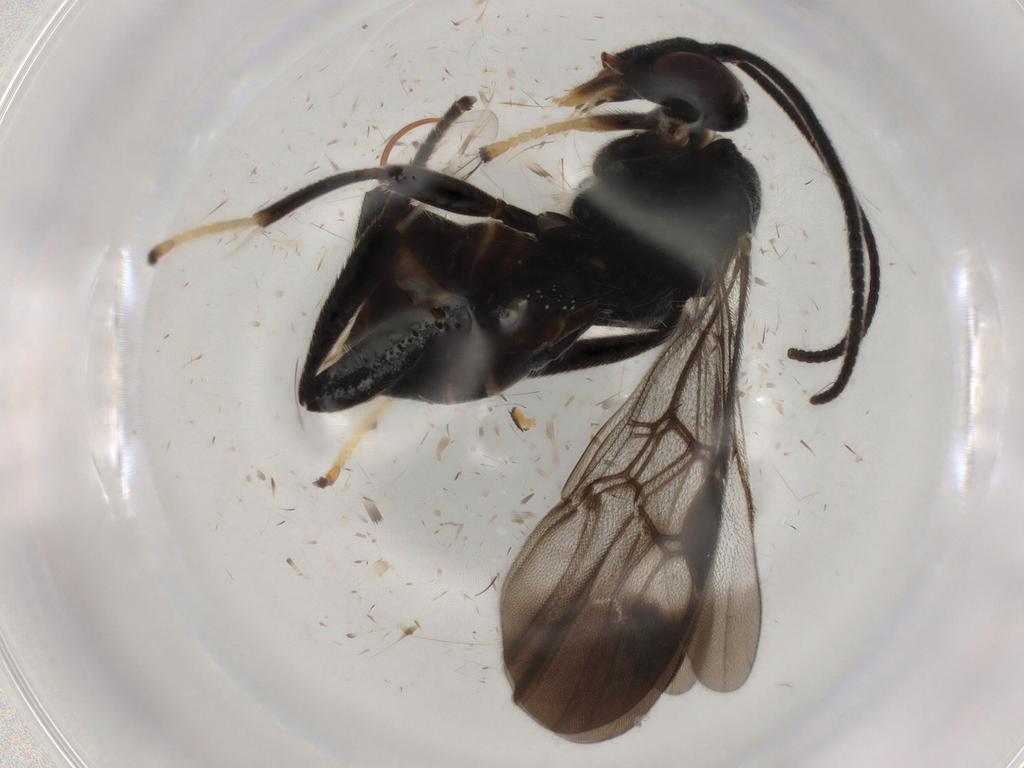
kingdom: Animalia
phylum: Arthropoda
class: Insecta
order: Hymenoptera
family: Braconidae
